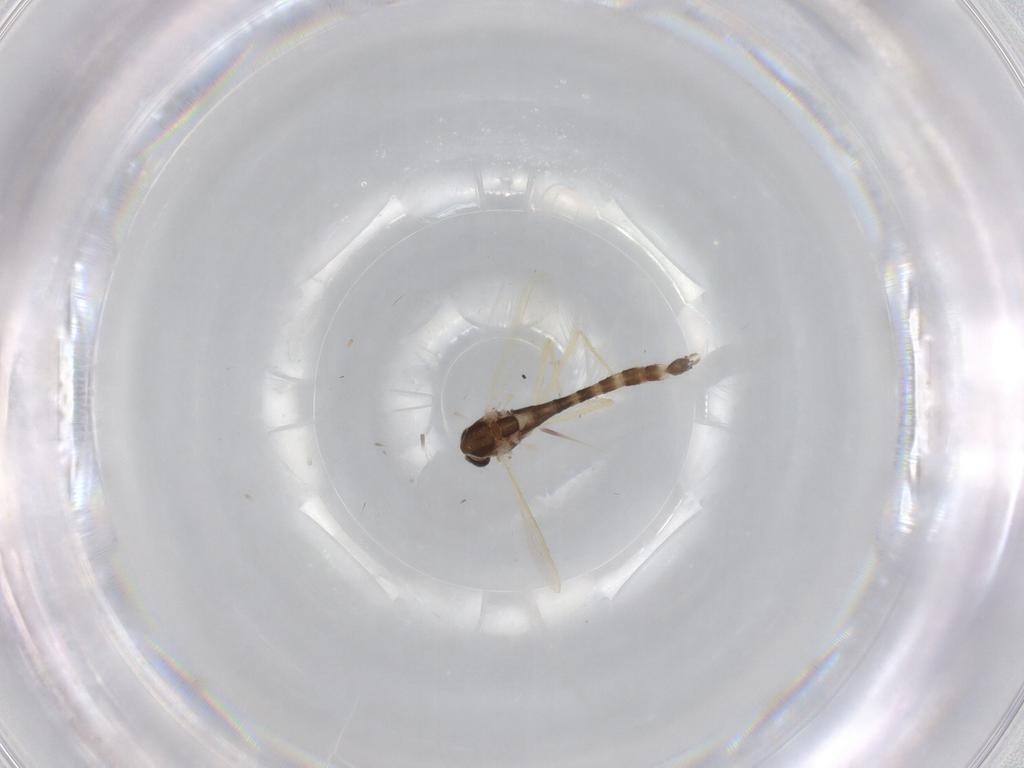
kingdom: Animalia
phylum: Arthropoda
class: Insecta
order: Diptera
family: Chironomidae
